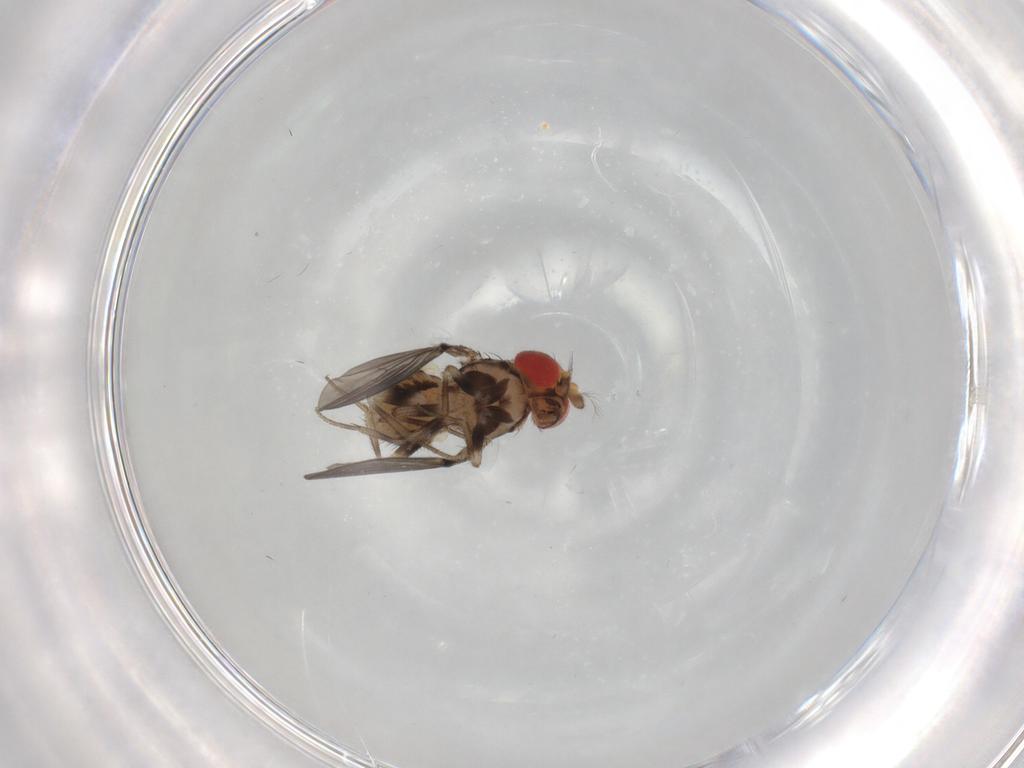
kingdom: Animalia
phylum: Arthropoda
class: Insecta
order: Diptera
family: Drosophilidae
